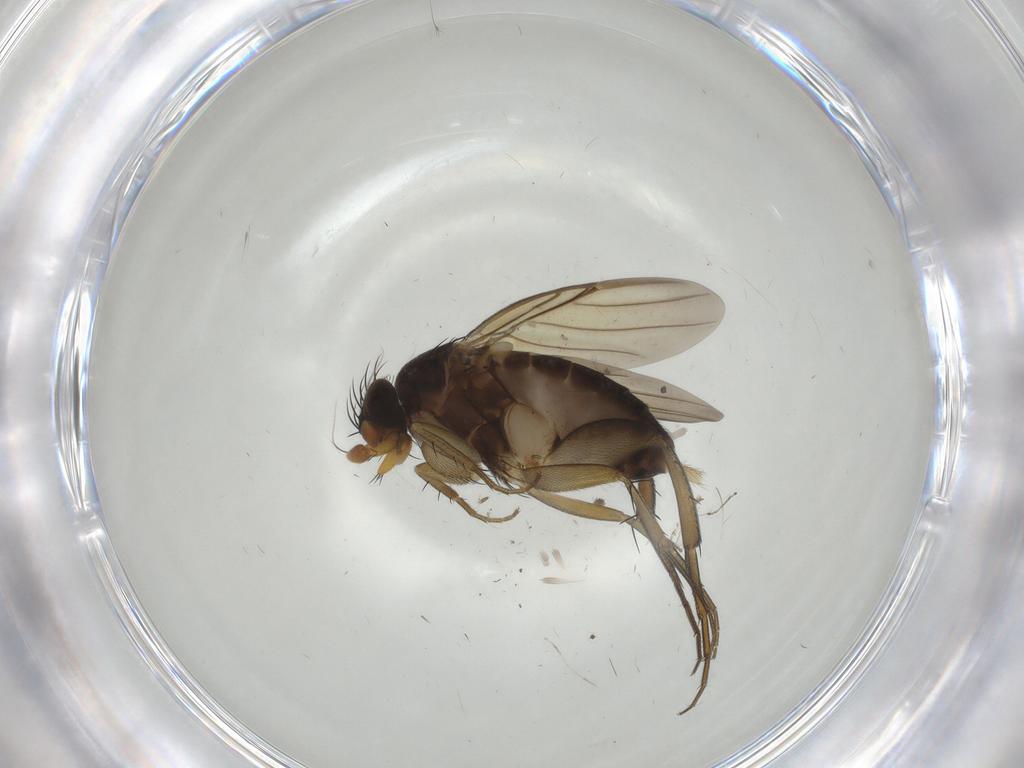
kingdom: Animalia
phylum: Arthropoda
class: Insecta
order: Diptera
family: Phoridae
